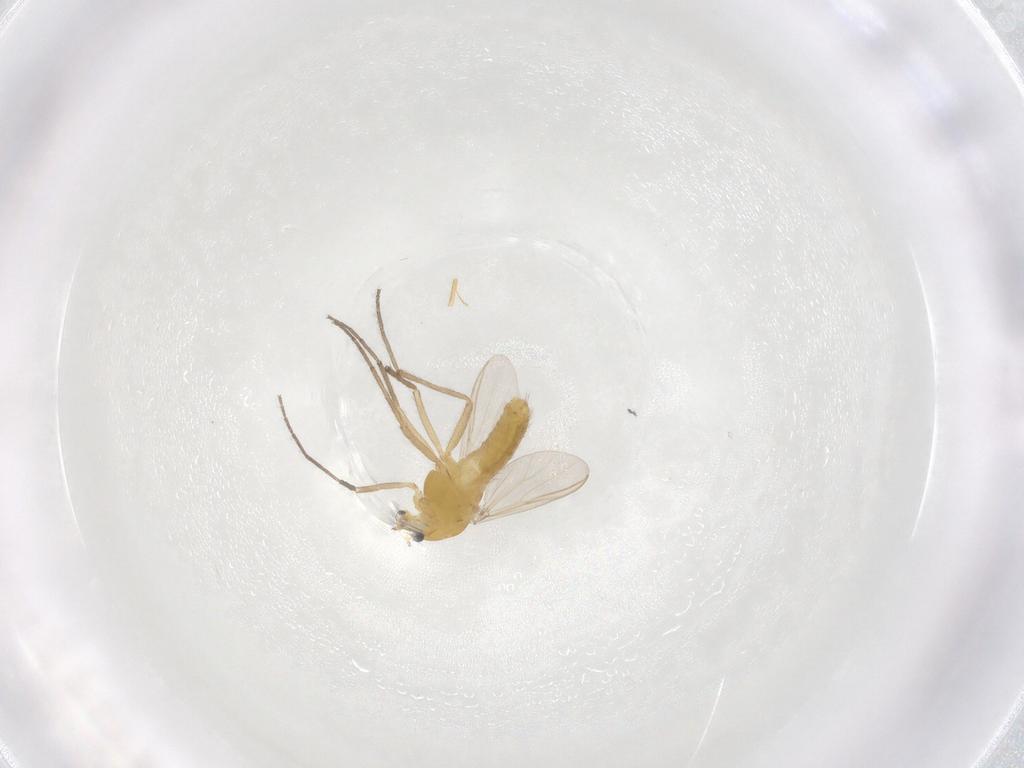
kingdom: Animalia
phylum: Arthropoda
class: Insecta
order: Diptera
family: Chironomidae
